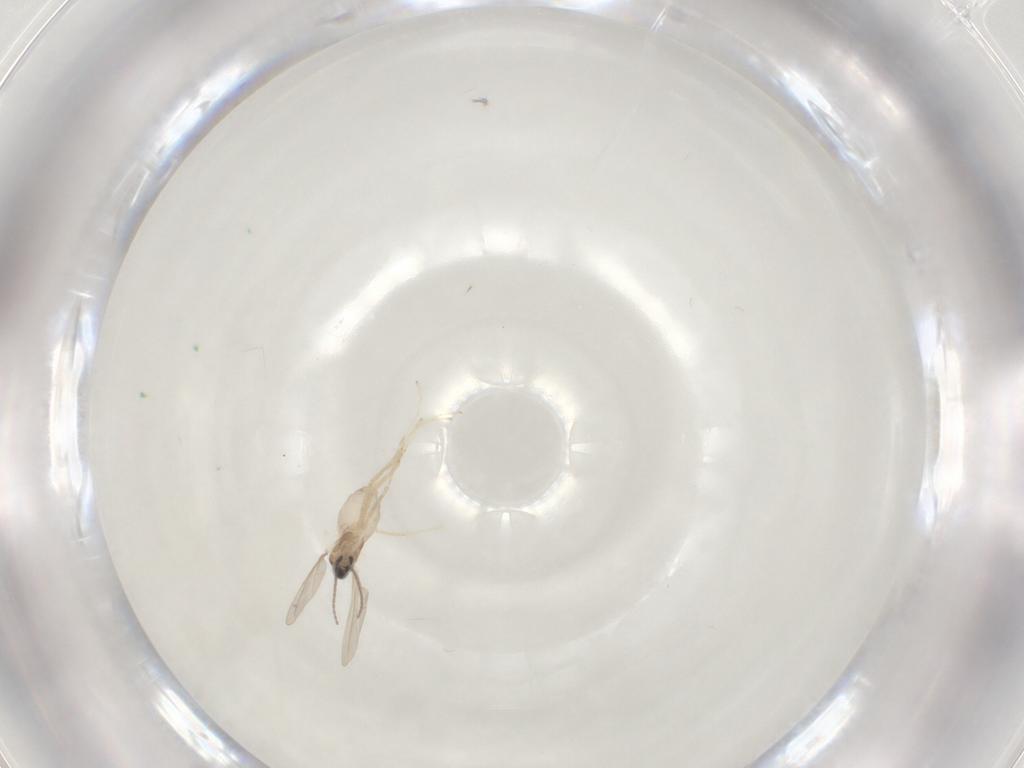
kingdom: Animalia
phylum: Arthropoda
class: Insecta
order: Diptera
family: Cecidomyiidae
